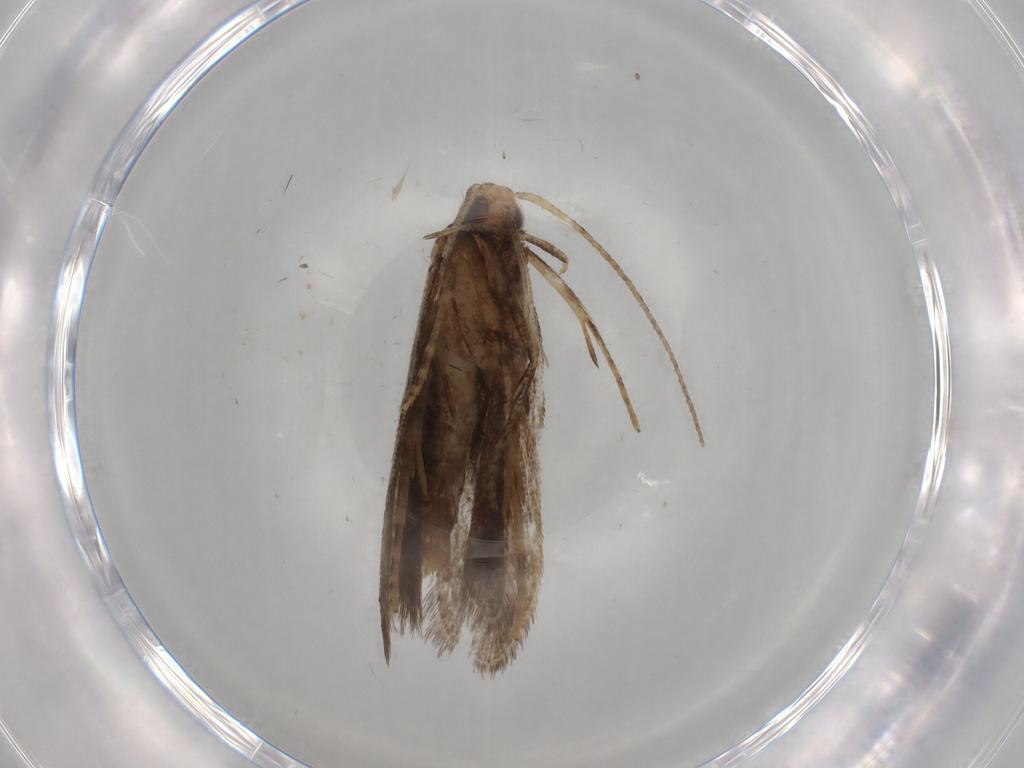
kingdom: Animalia
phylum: Arthropoda
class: Insecta
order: Lepidoptera
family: Gelechiidae
